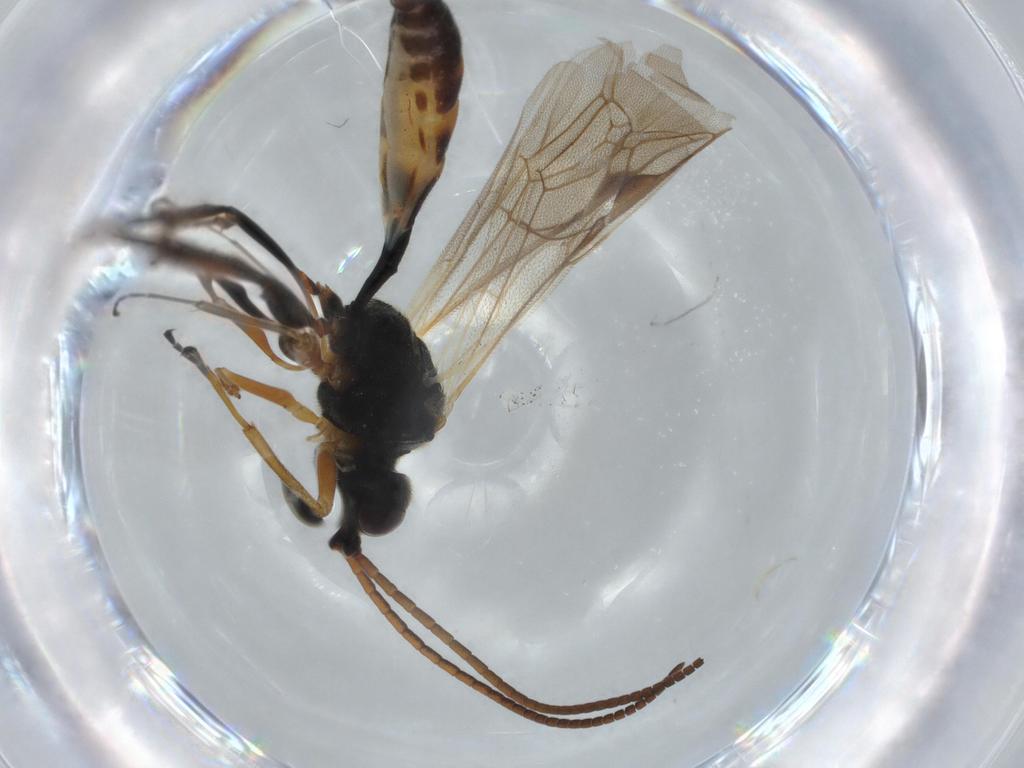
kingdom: Animalia
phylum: Arthropoda
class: Insecta
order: Hymenoptera
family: Ichneumonidae
